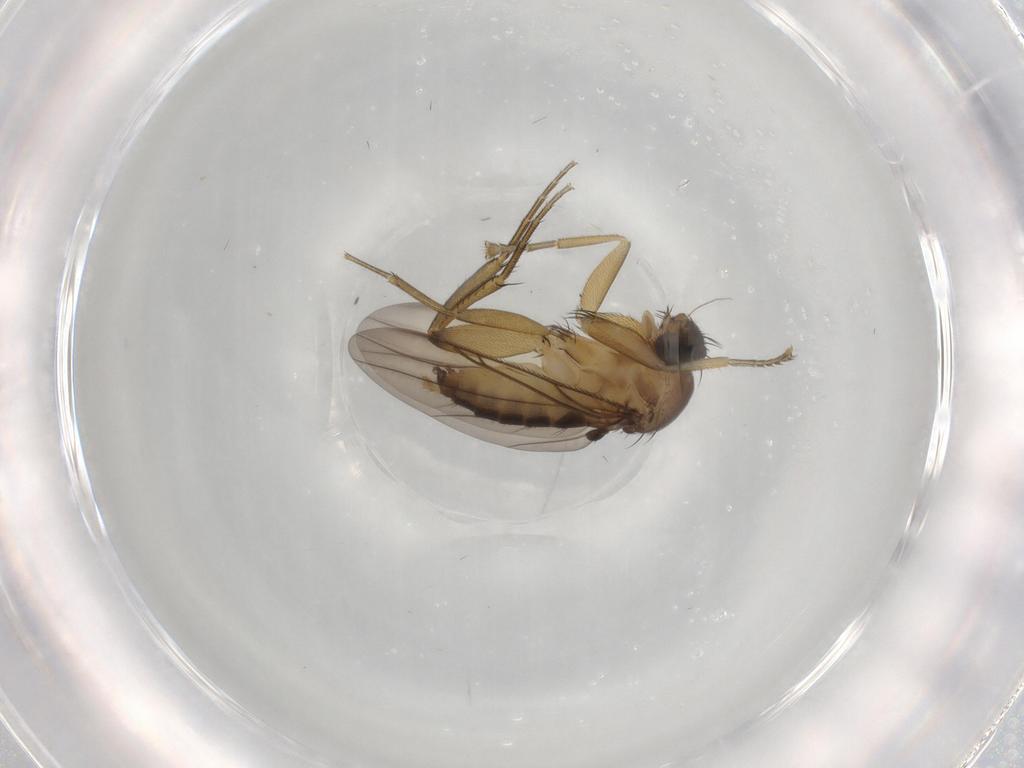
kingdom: Animalia
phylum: Arthropoda
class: Insecta
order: Diptera
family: Phoridae
